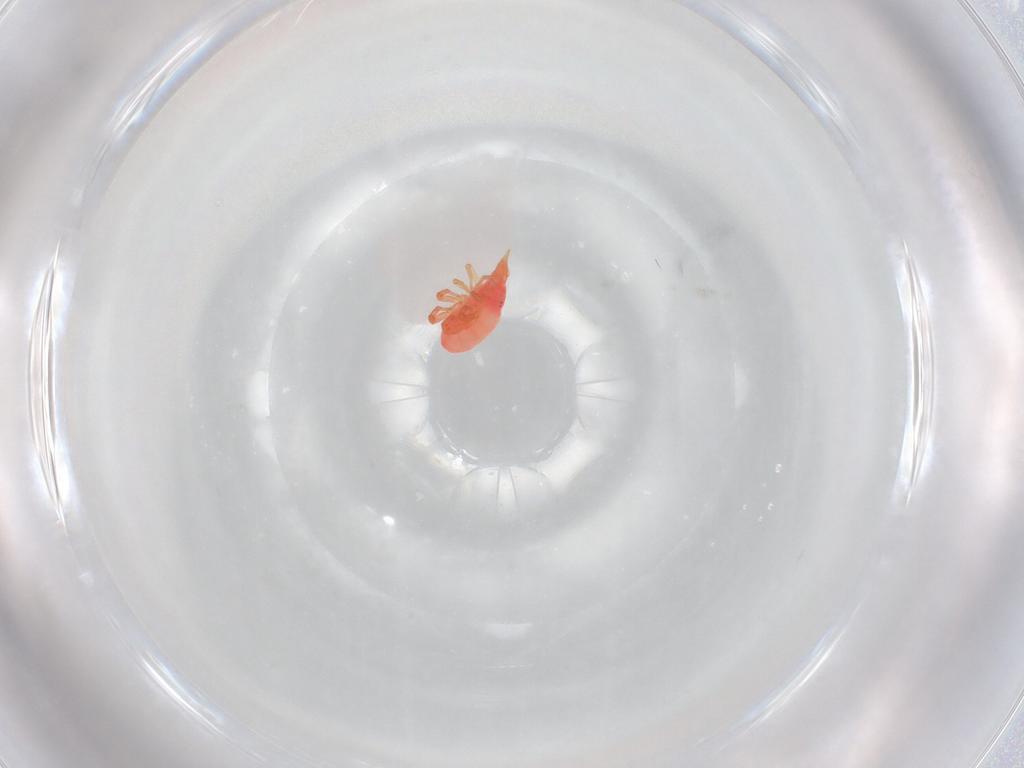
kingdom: Animalia
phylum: Arthropoda
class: Arachnida
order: Trombidiformes
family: Bdellidae
